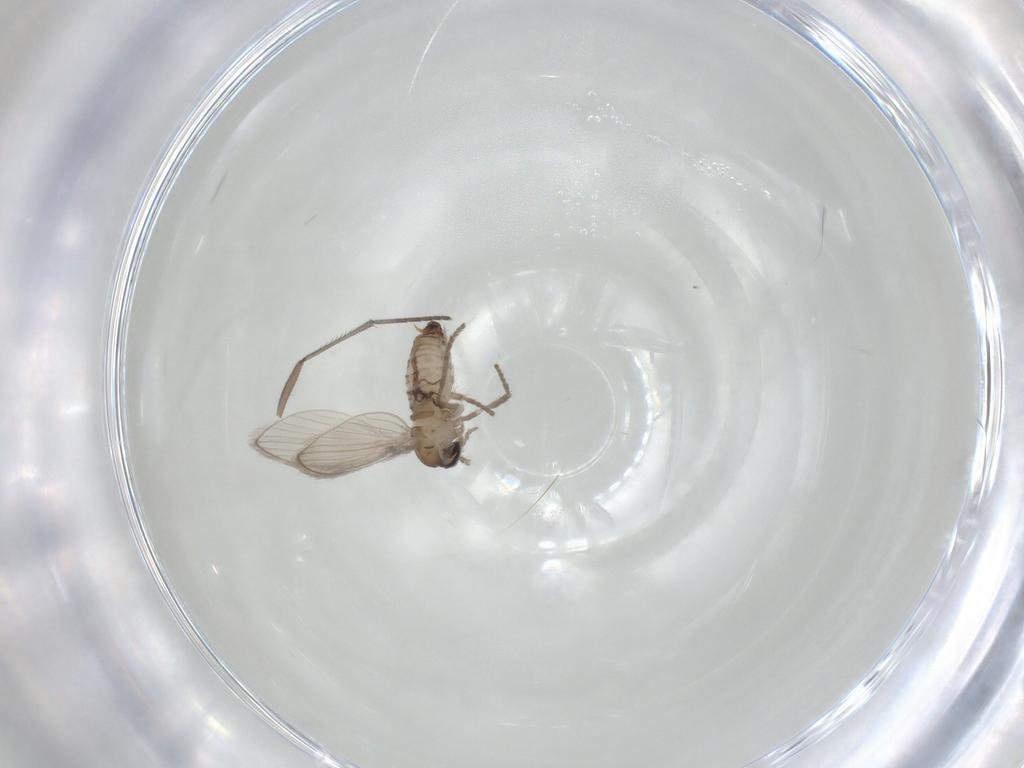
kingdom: Animalia
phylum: Arthropoda
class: Insecta
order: Diptera
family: Psychodidae
